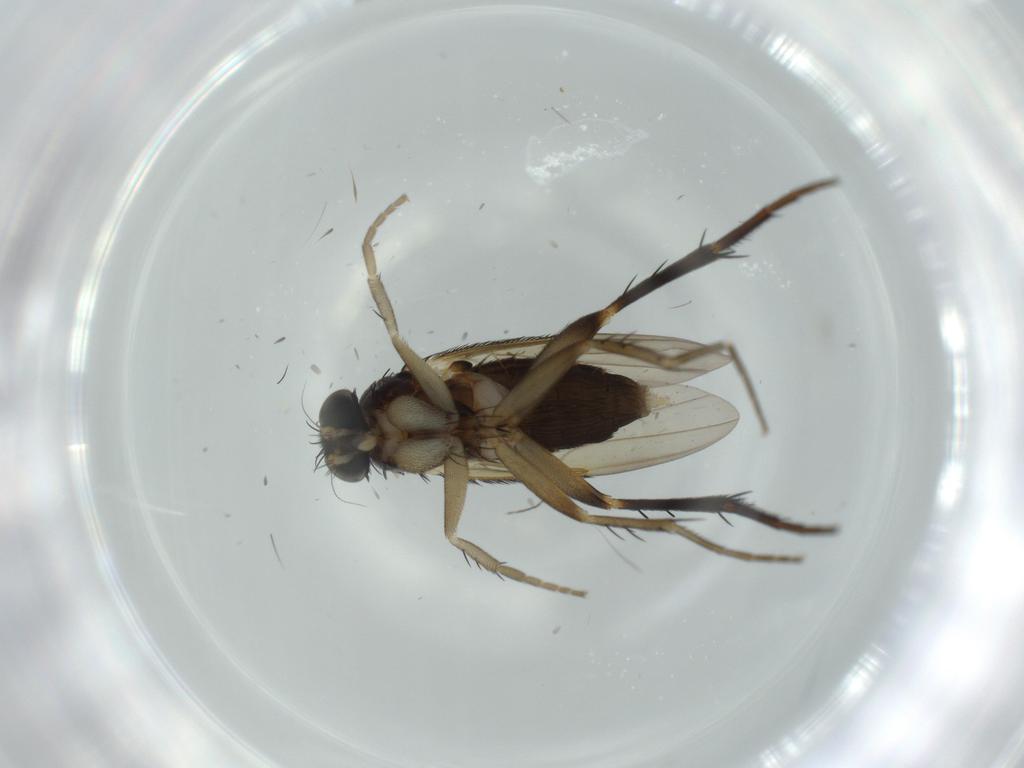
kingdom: Animalia
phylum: Arthropoda
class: Insecta
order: Diptera
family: Phoridae
